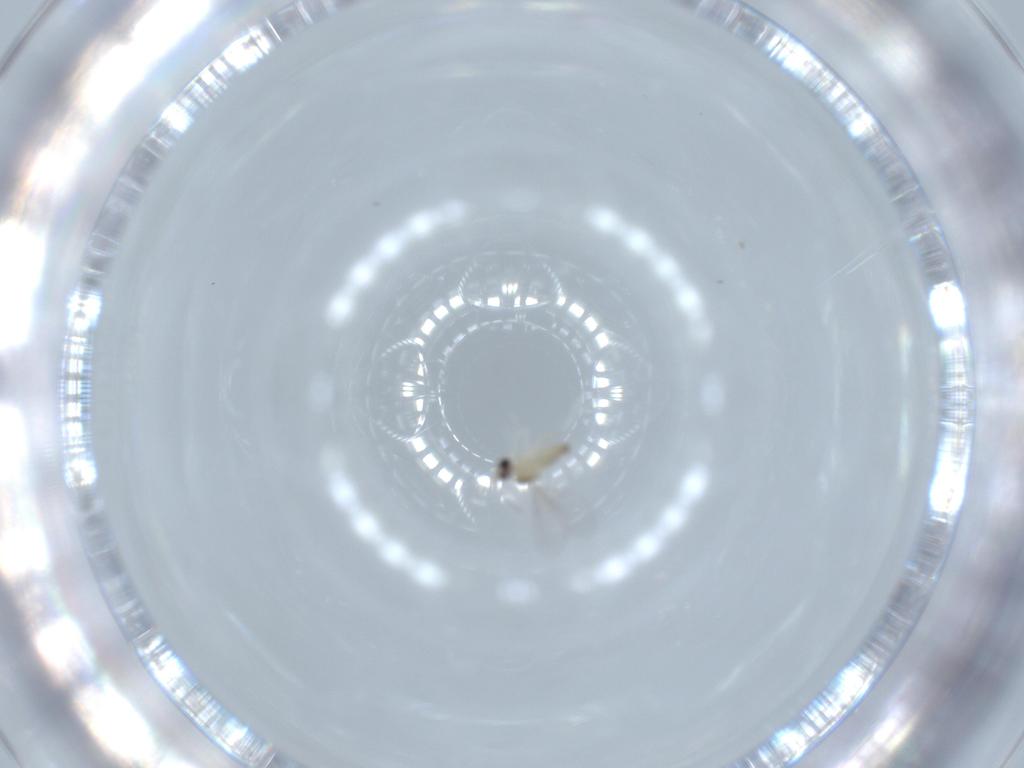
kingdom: Animalia
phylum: Arthropoda
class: Insecta
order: Diptera
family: Cecidomyiidae
